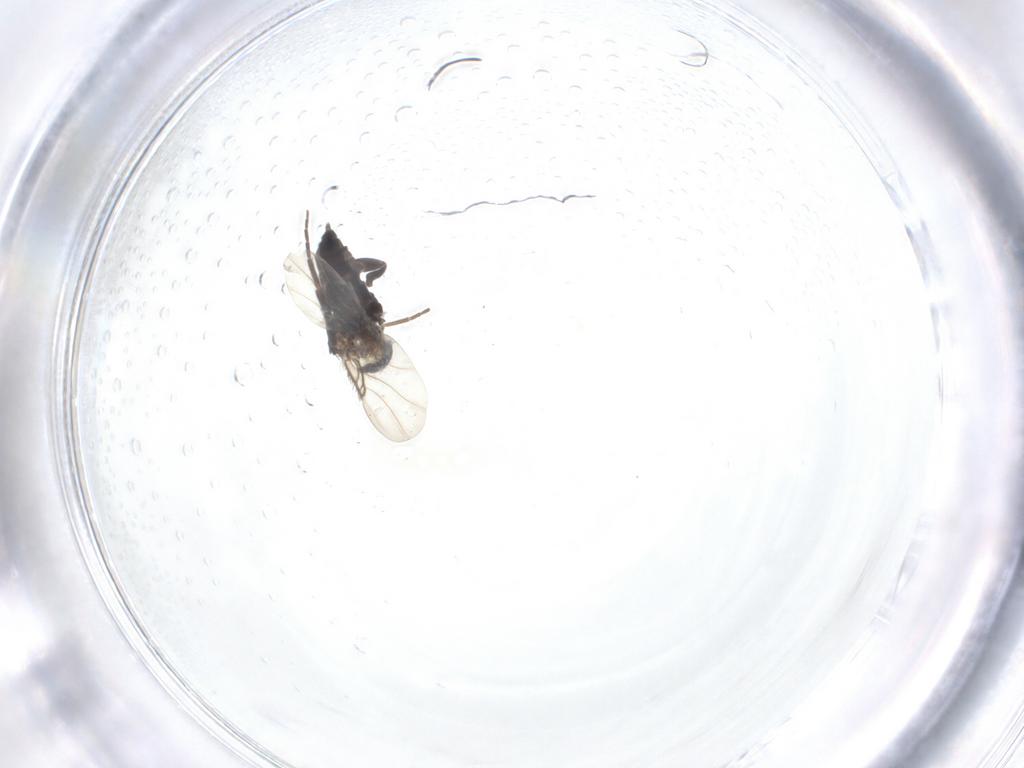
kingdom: Animalia
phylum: Arthropoda
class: Insecta
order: Diptera
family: Phoridae
